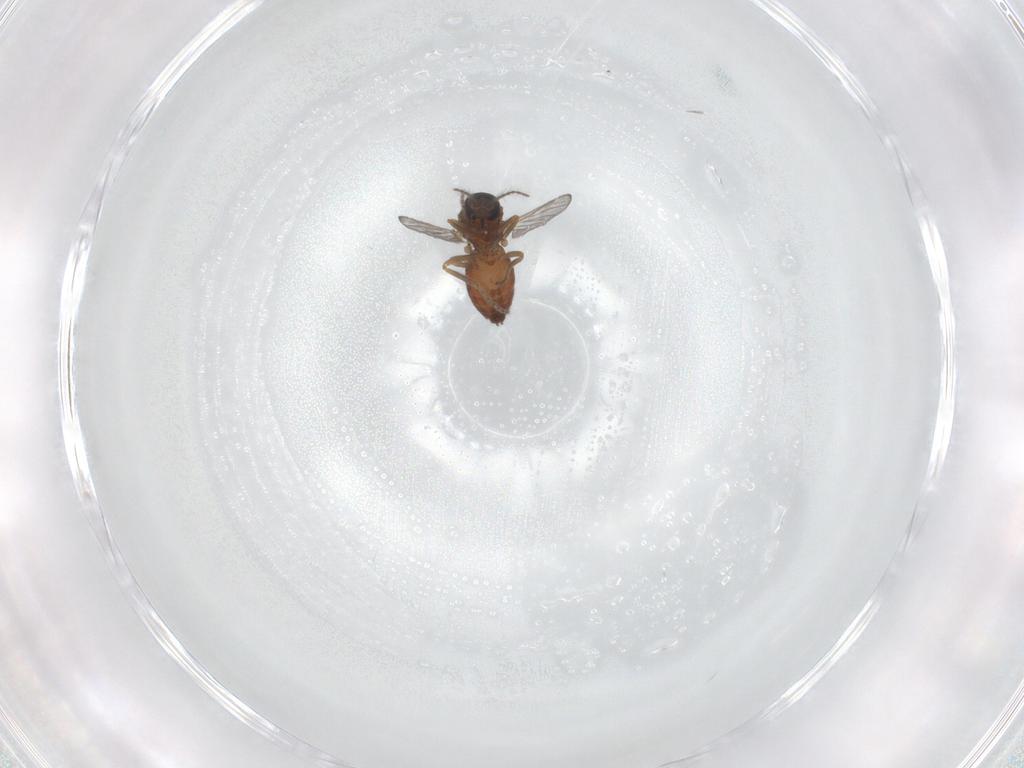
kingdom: Animalia
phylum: Arthropoda
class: Insecta
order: Diptera
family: Ceratopogonidae
